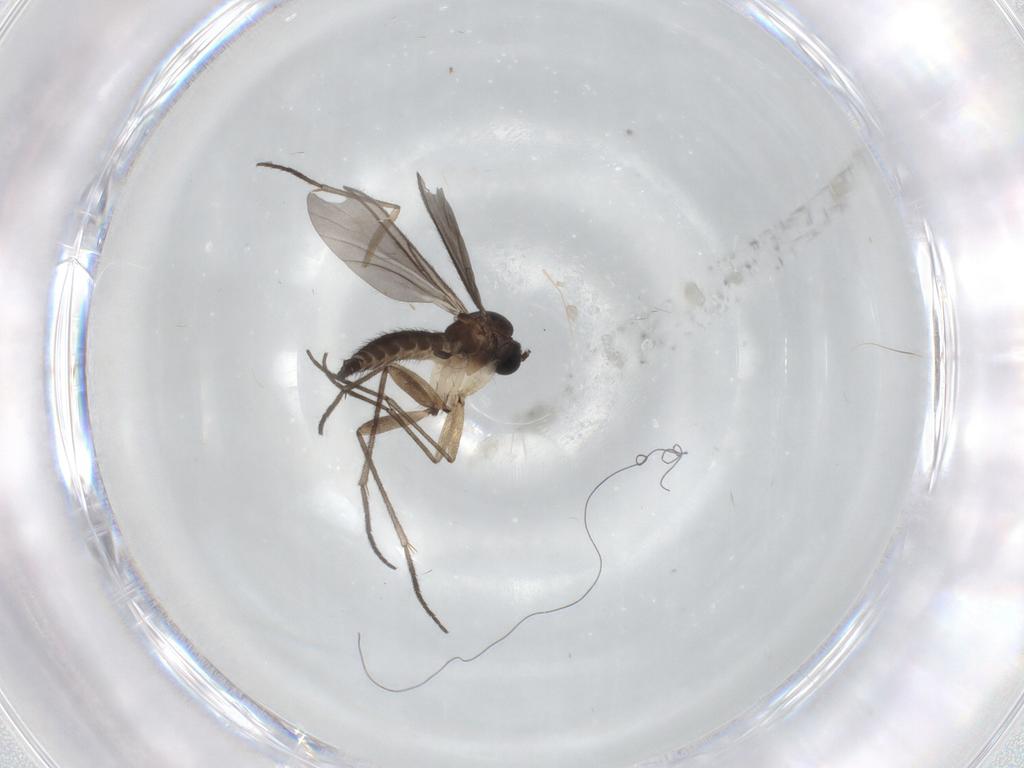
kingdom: Animalia
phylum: Arthropoda
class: Insecta
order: Diptera
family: Sciaridae
